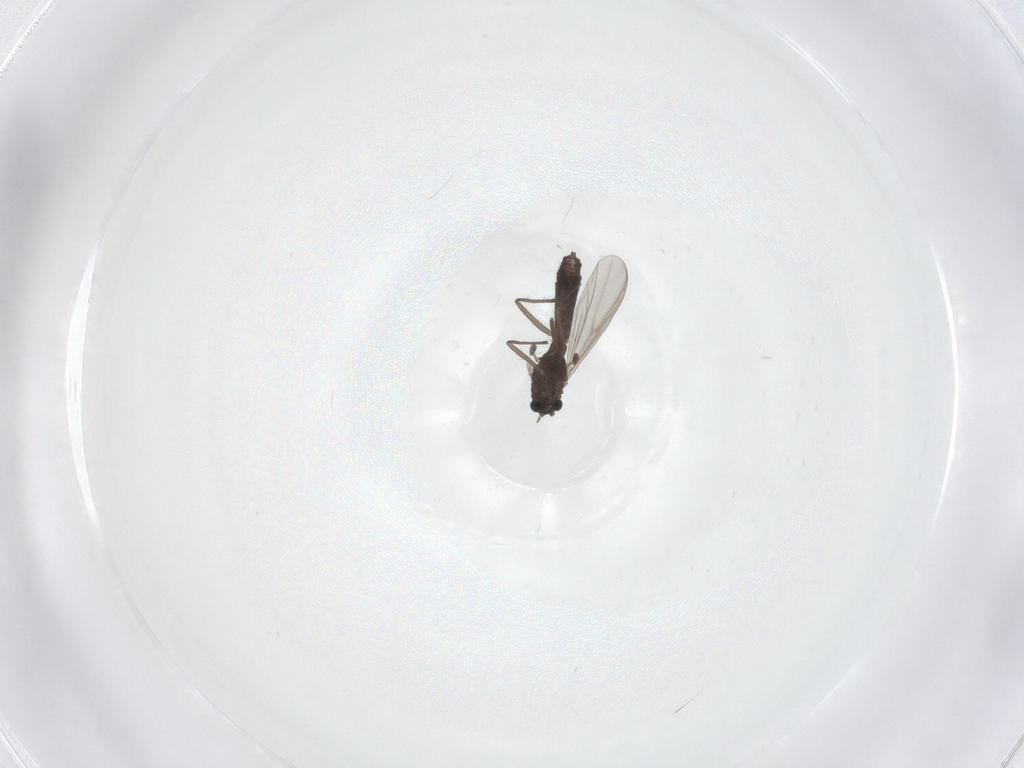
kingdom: Animalia
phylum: Arthropoda
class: Insecta
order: Diptera
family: Chironomidae
